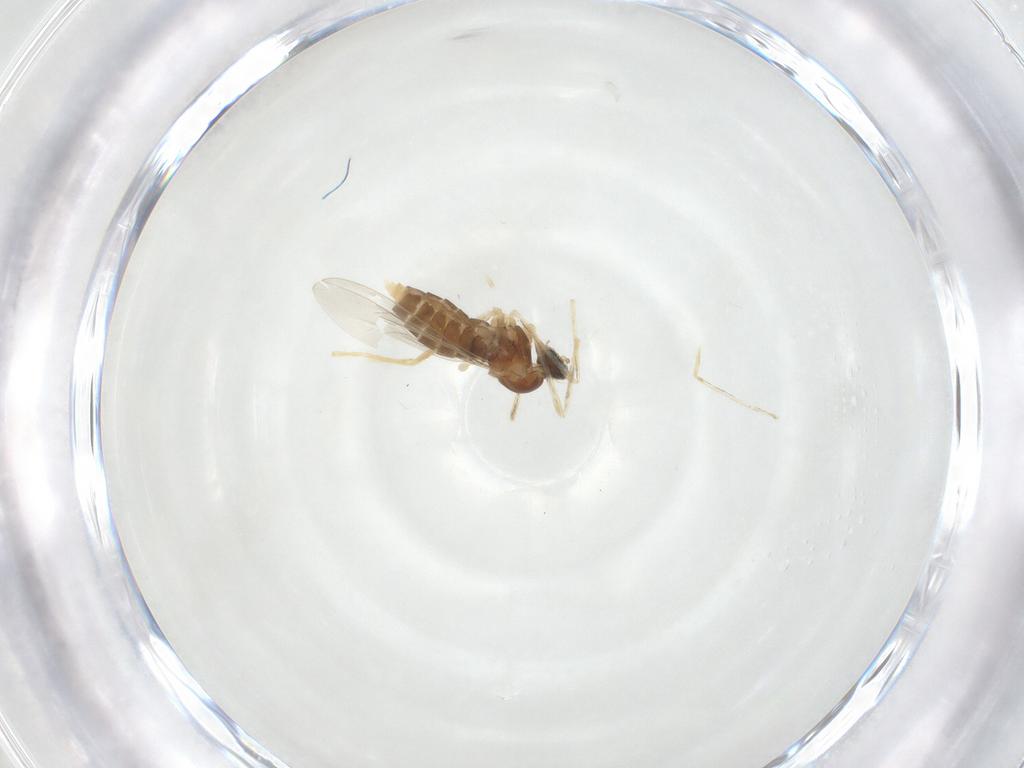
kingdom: Animalia
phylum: Arthropoda
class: Insecta
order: Diptera
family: Cecidomyiidae
